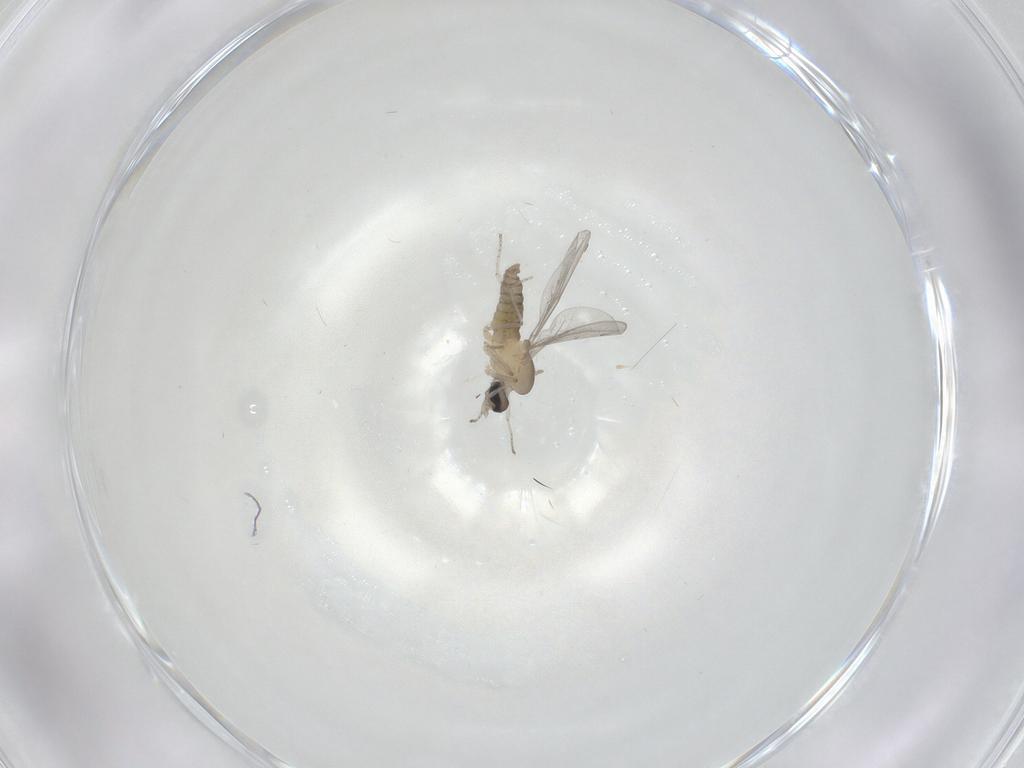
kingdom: Animalia
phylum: Arthropoda
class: Insecta
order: Diptera
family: Cecidomyiidae
